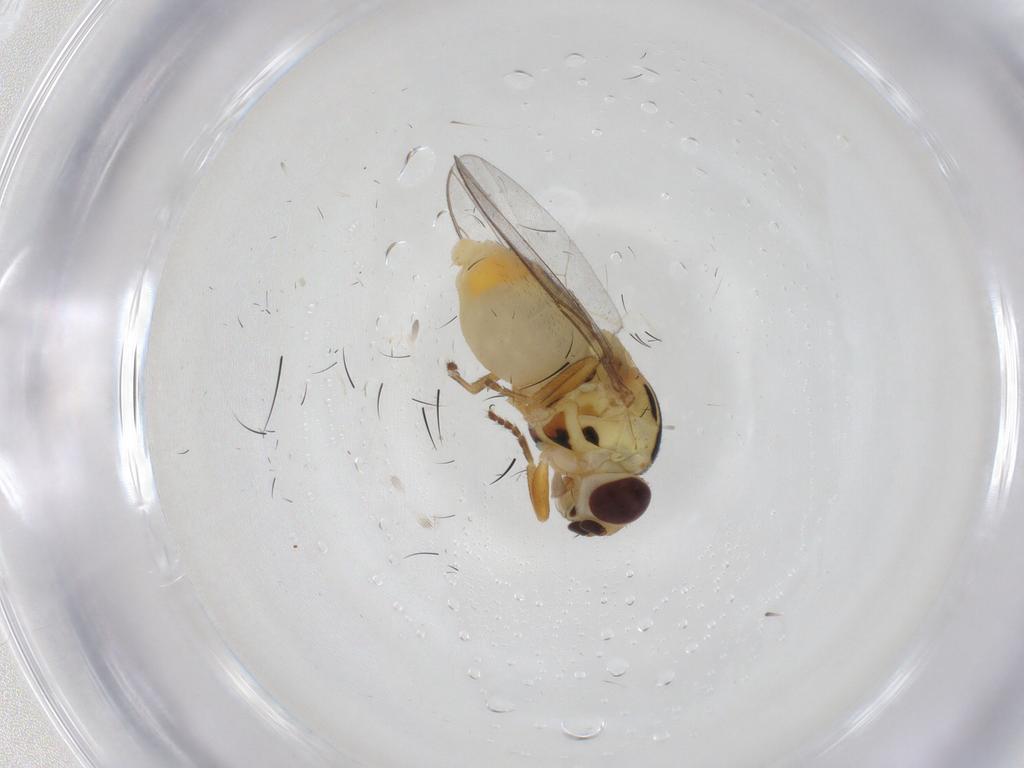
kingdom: Animalia
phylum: Arthropoda
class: Insecta
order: Diptera
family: Chloropidae
